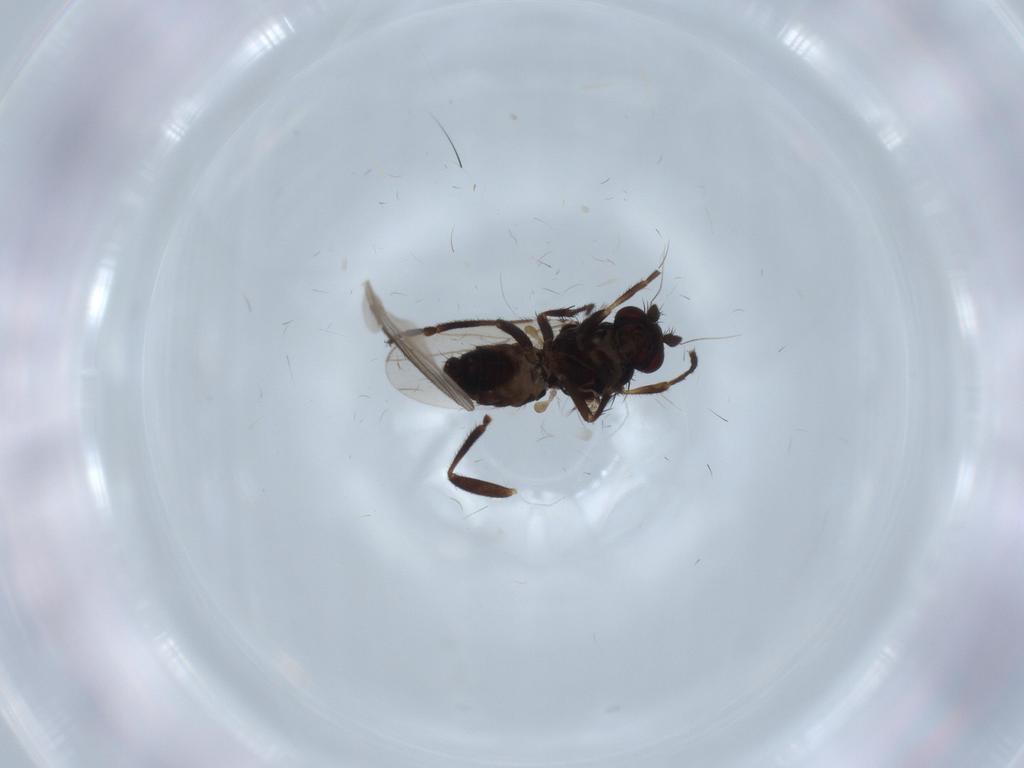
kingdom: Animalia
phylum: Arthropoda
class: Insecta
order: Diptera
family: Sphaeroceridae
